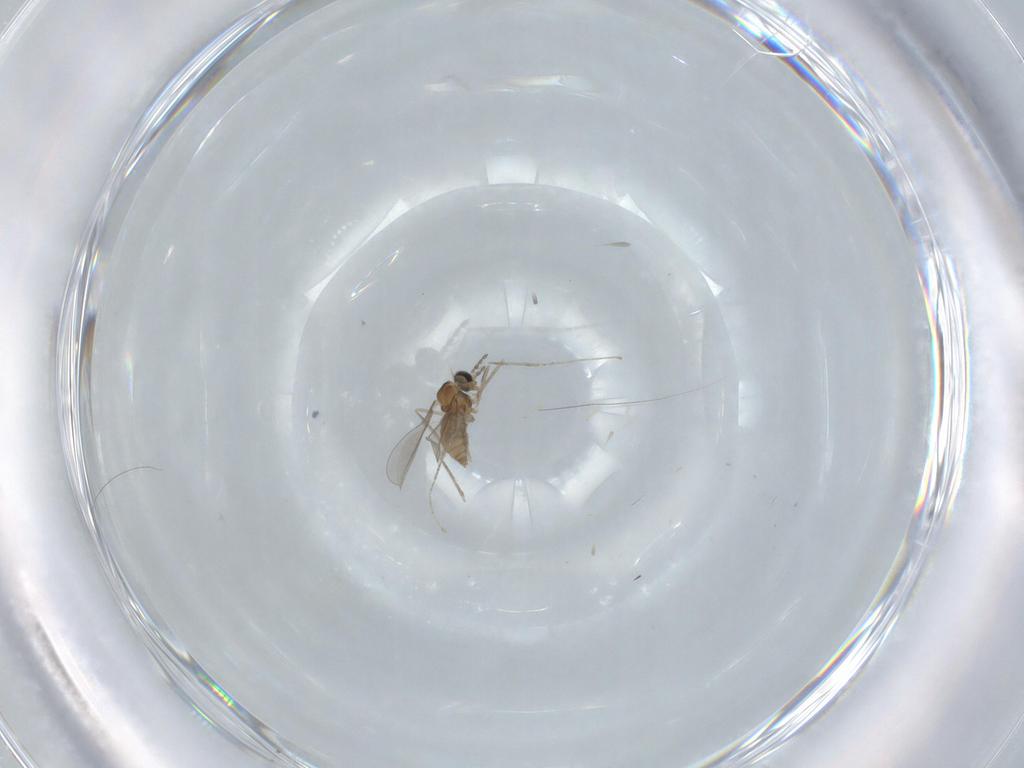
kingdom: Animalia
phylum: Arthropoda
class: Insecta
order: Diptera
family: Cecidomyiidae
